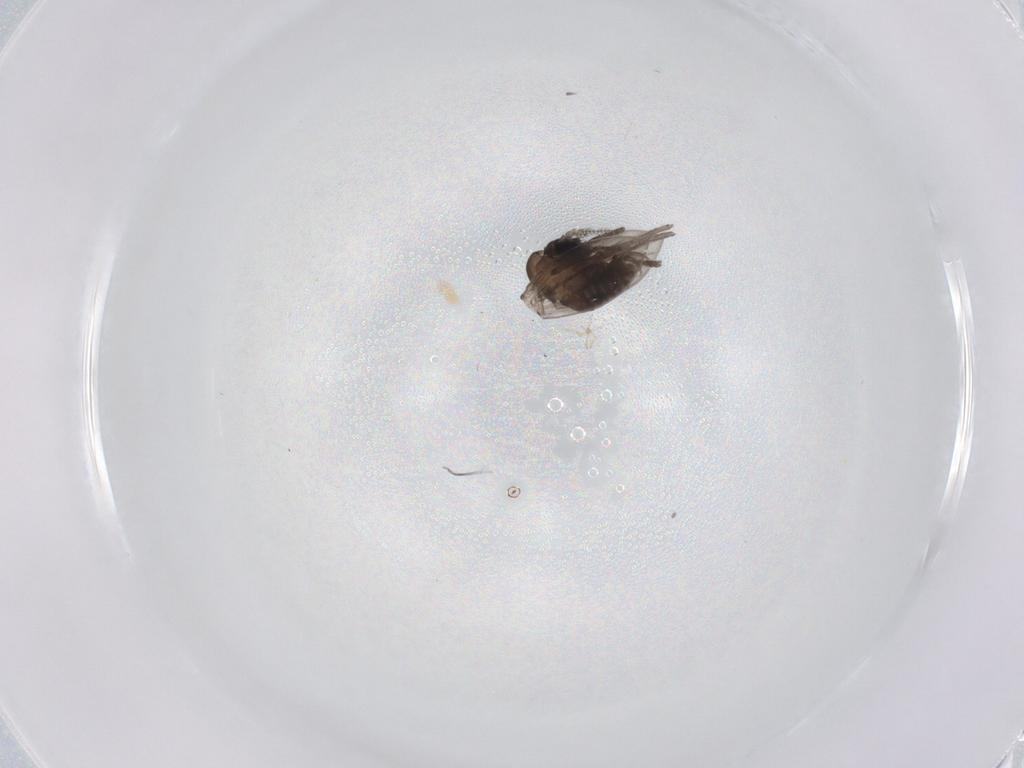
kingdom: Animalia
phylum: Arthropoda
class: Insecta
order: Diptera
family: Psychodidae
